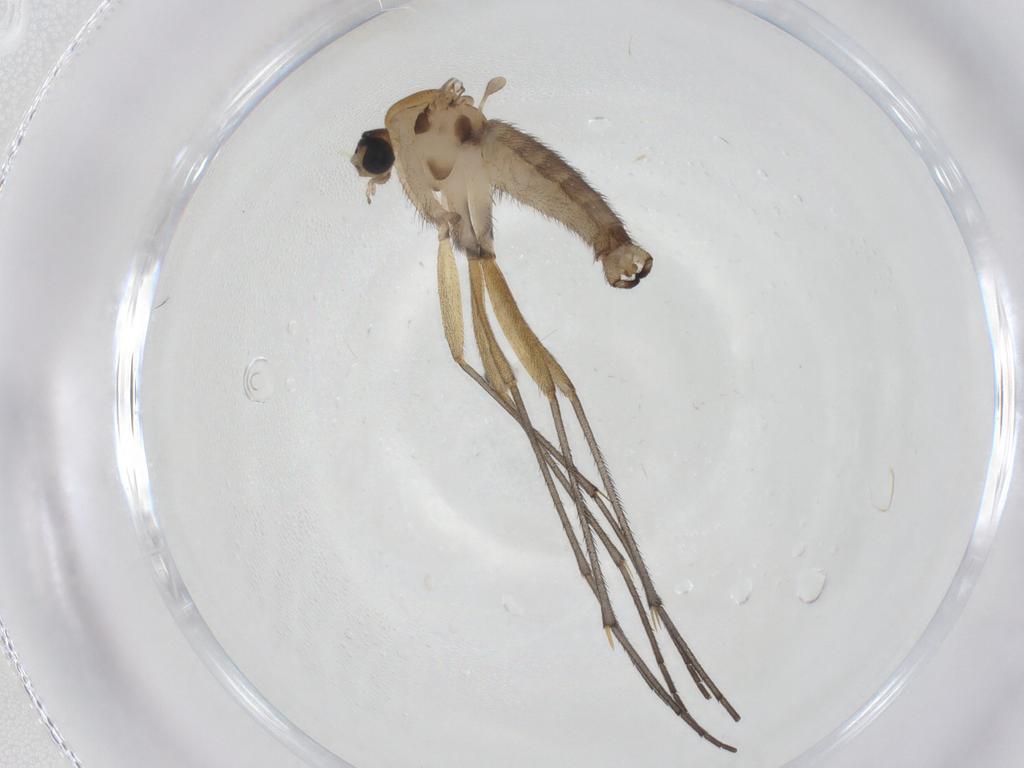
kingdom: Animalia
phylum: Arthropoda
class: Insecta
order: Diptera
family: Sciaridae
